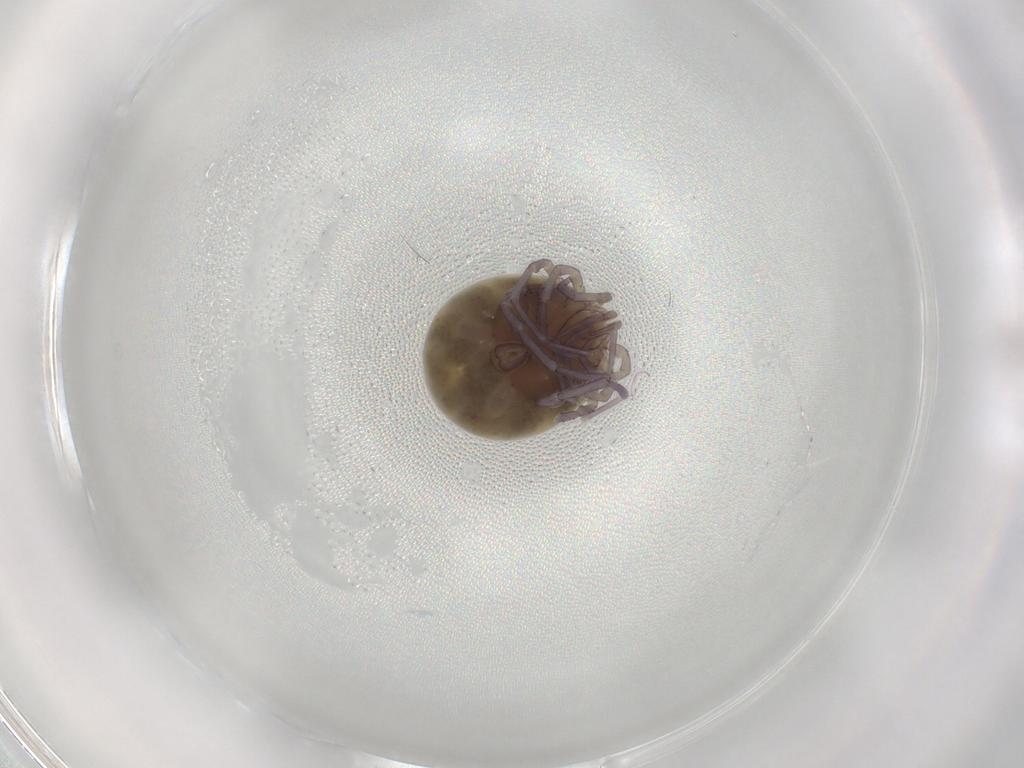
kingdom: Animalia
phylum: Arthropoda
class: Arachnida
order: Trombidiformes
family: Lebertiidae
